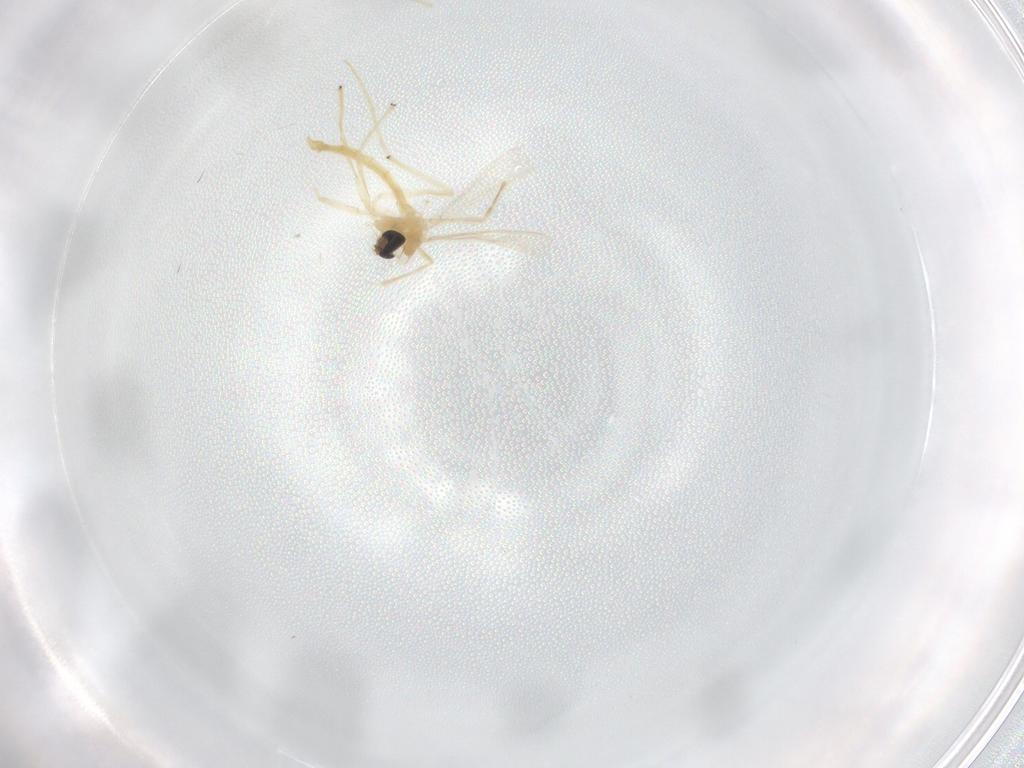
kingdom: Animalia
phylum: Arthropoda
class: Insecta
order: Diptera
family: Chironomidae
